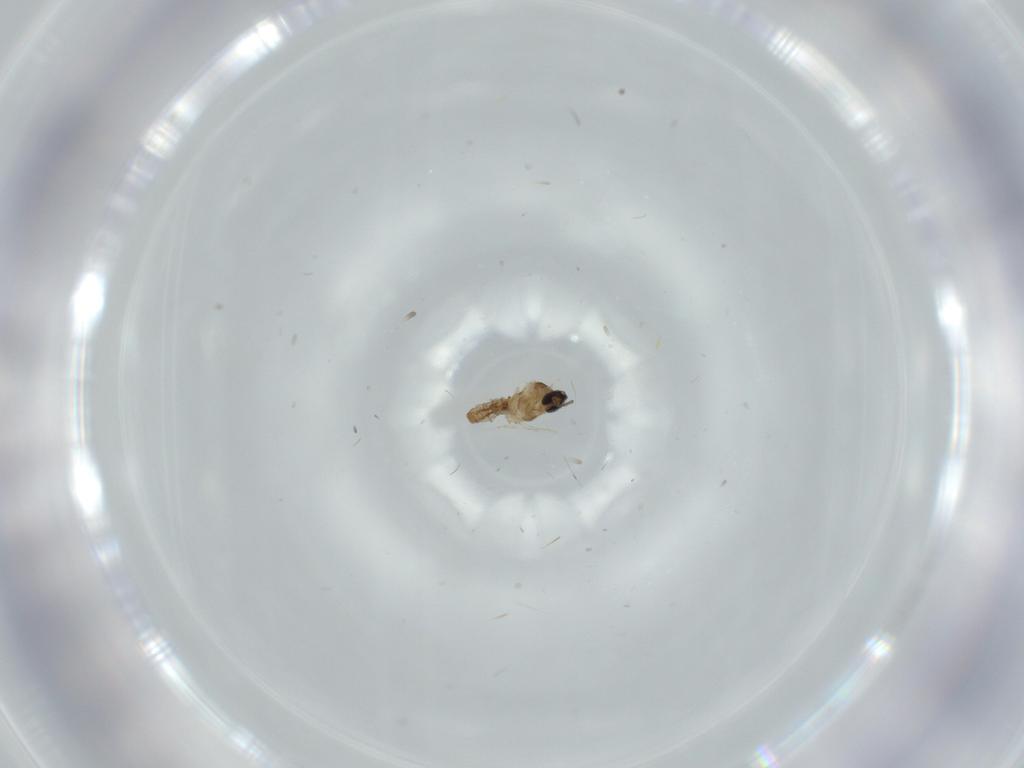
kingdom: Animalia
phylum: Arthropoda
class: Insecta
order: Diptera
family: Cecidomyiidae
